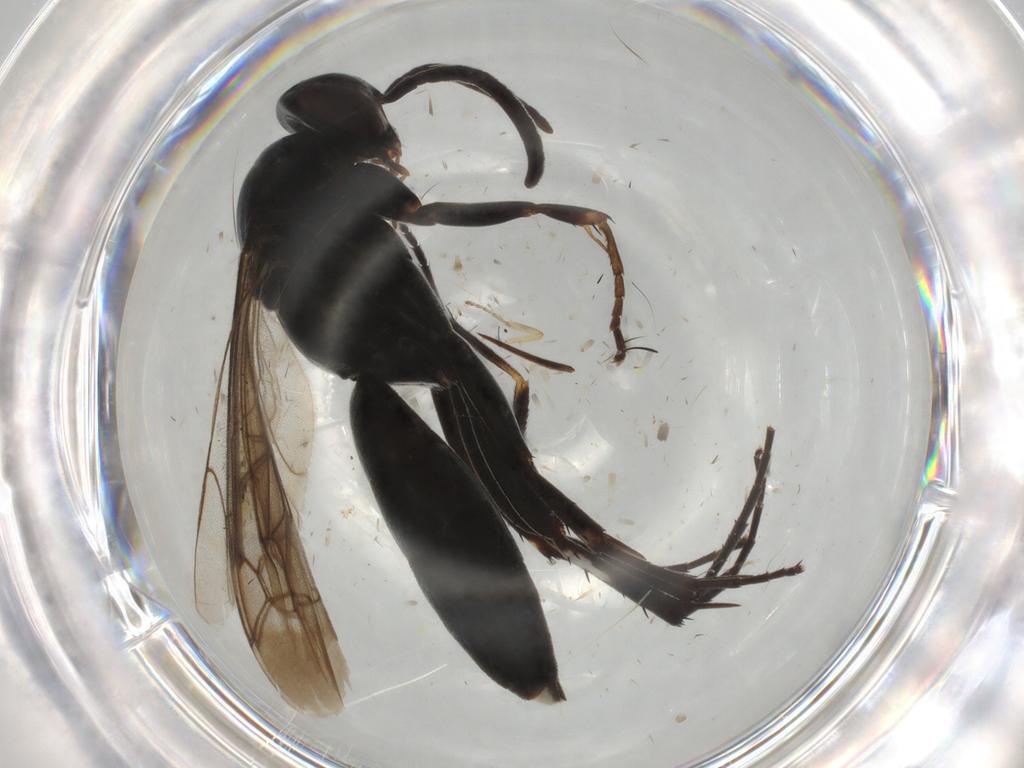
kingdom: Animalia
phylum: Arthropoda
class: Insecta
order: Hymenoptera
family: Pompilidae
